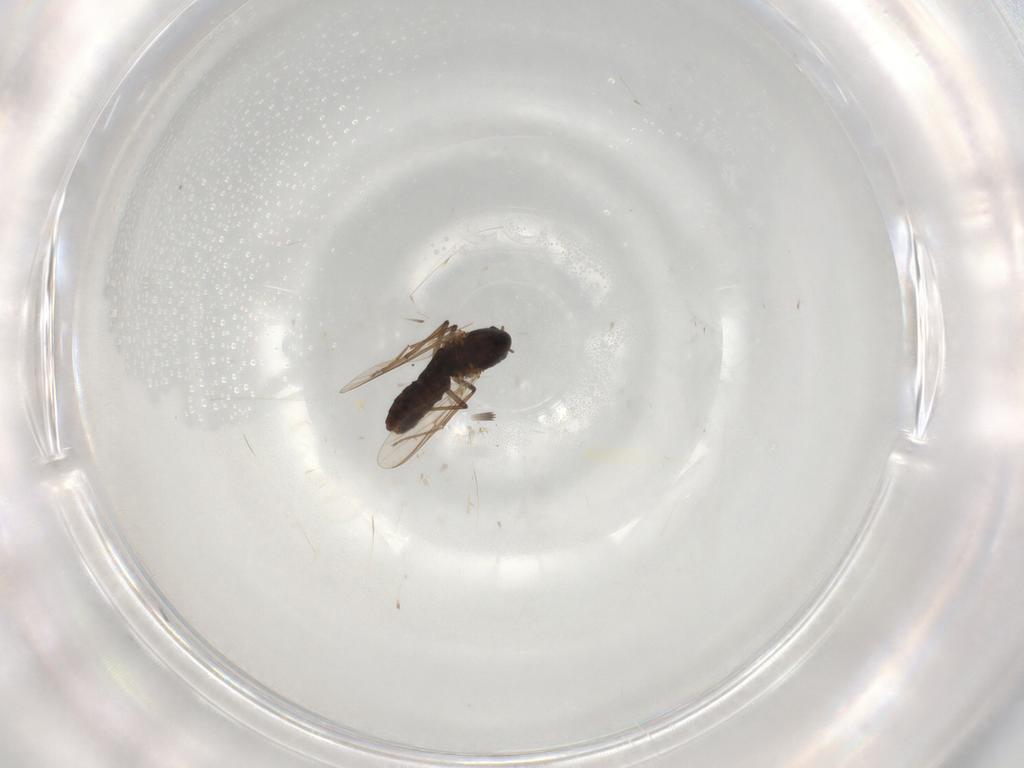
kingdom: Animalia
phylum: Arthropoda
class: Insecta
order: Diptera
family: Chironomidae
